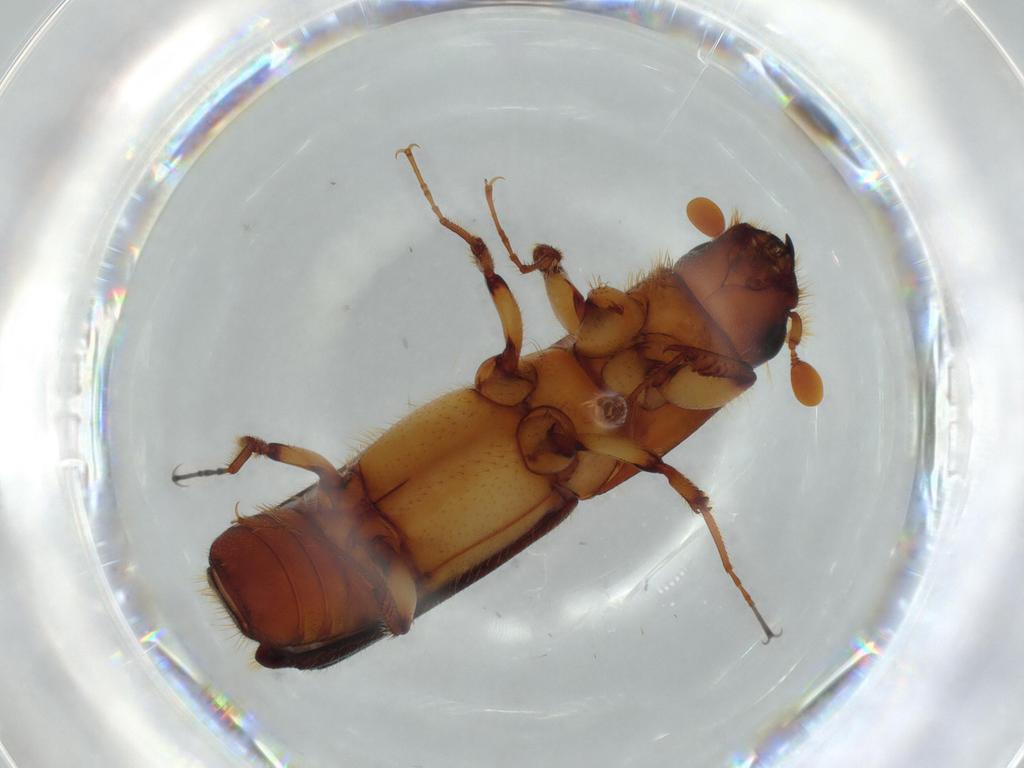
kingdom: Animalia
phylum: Arthropoda
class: Insecta
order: Coleoptera
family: Curculionidae
